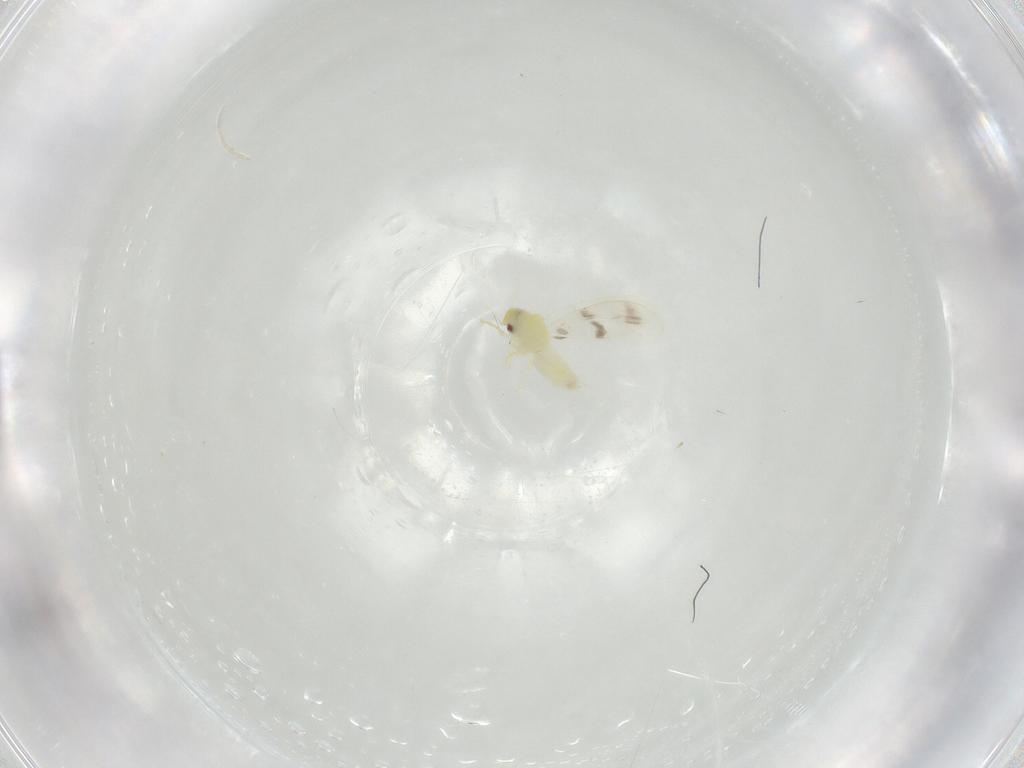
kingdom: Animalia
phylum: Arthropoda
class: Insecta
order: Hemiptera
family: Aleyrodidae
